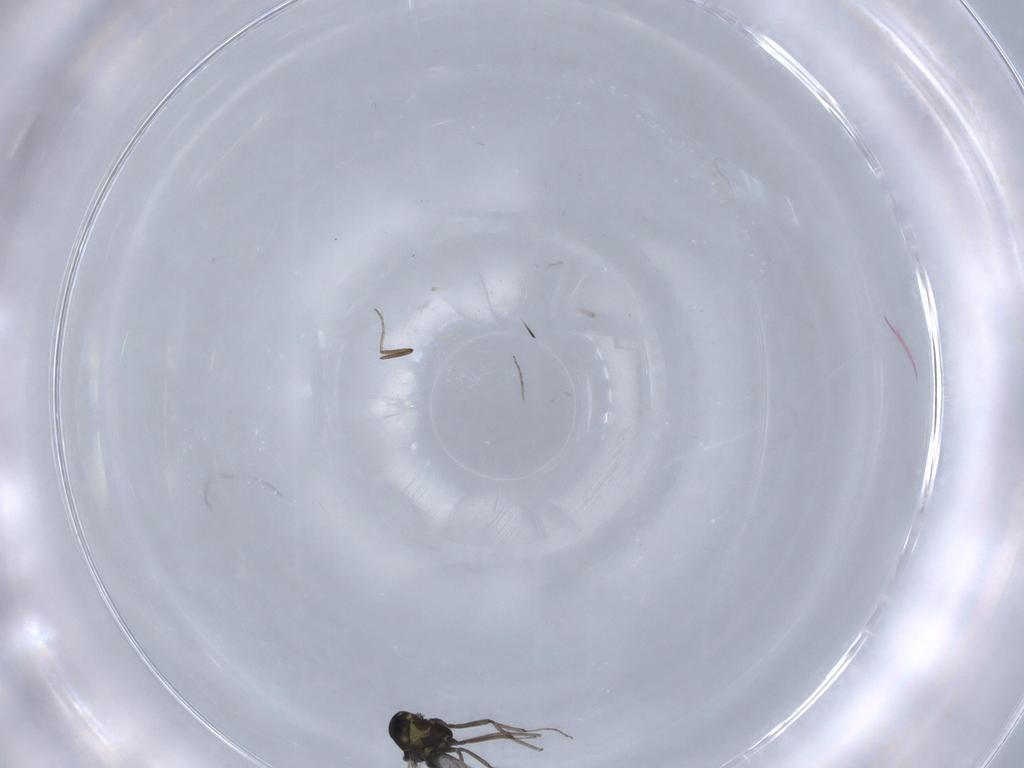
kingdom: Animalia
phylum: Arthropoda
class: Insecta
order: Diptera
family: Ceratopogonidae
